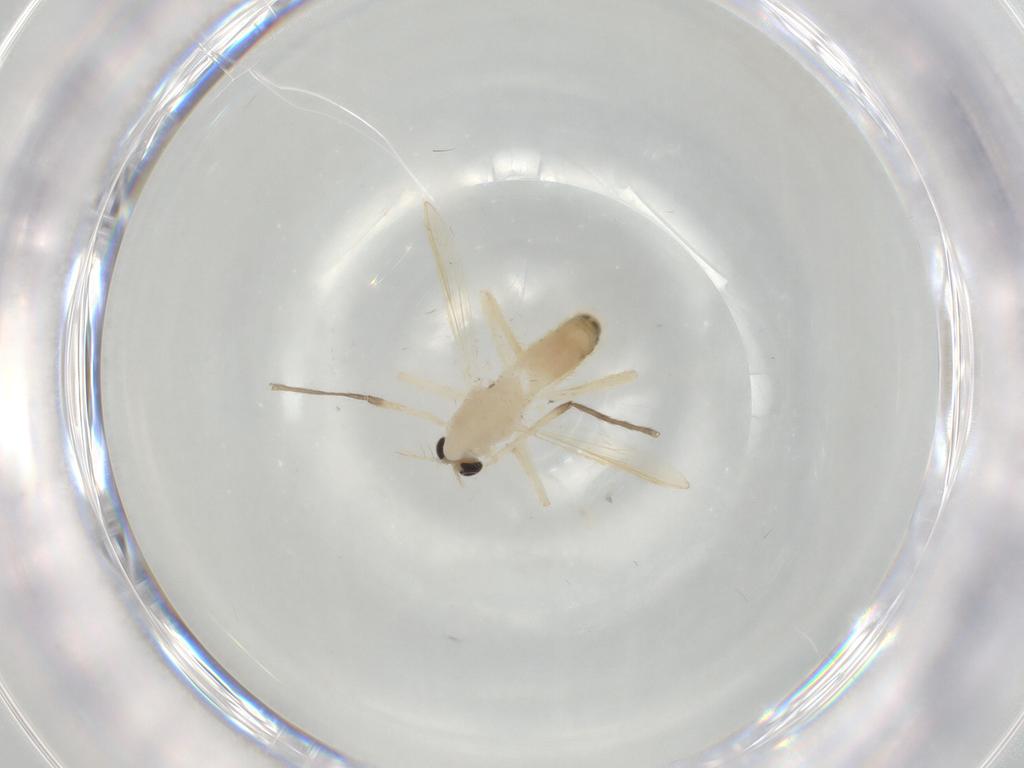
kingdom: Animalia
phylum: Arthropoda
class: Insecta
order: Diptera
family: Chironomidae
